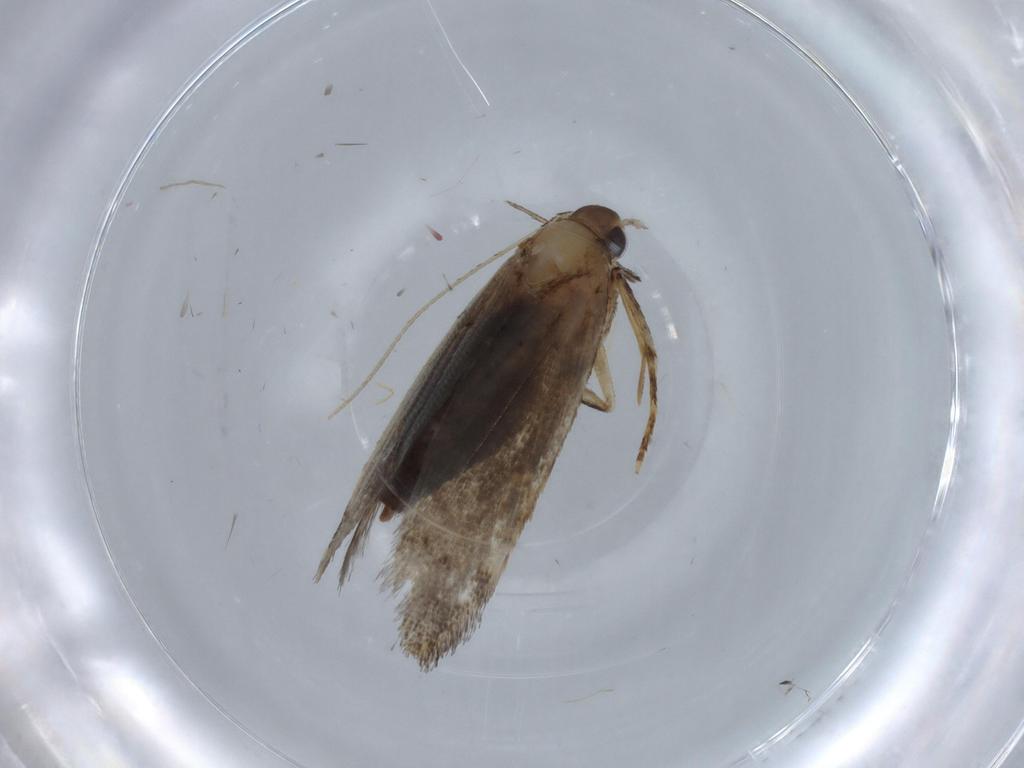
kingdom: Animalia
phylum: Arthropoda
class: Insecta
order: Lepidoptera
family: Cosmopterigidae
